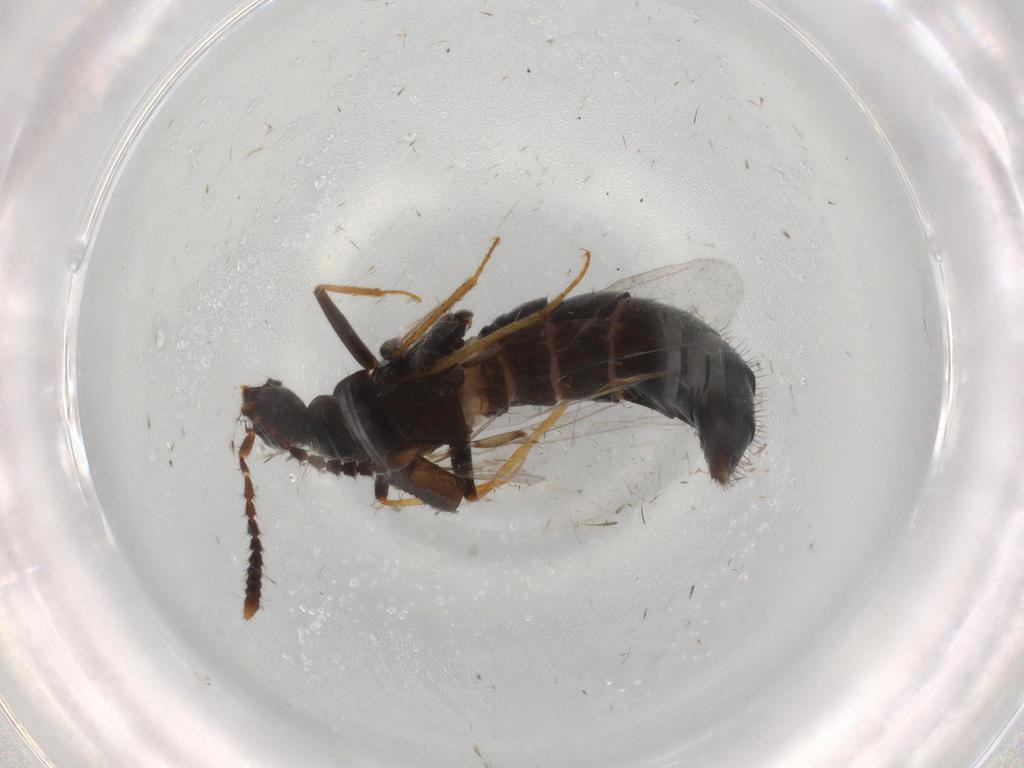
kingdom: Animalia
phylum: Arthropoda
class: Insecta
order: Coleoptera
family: Staphylinidae
